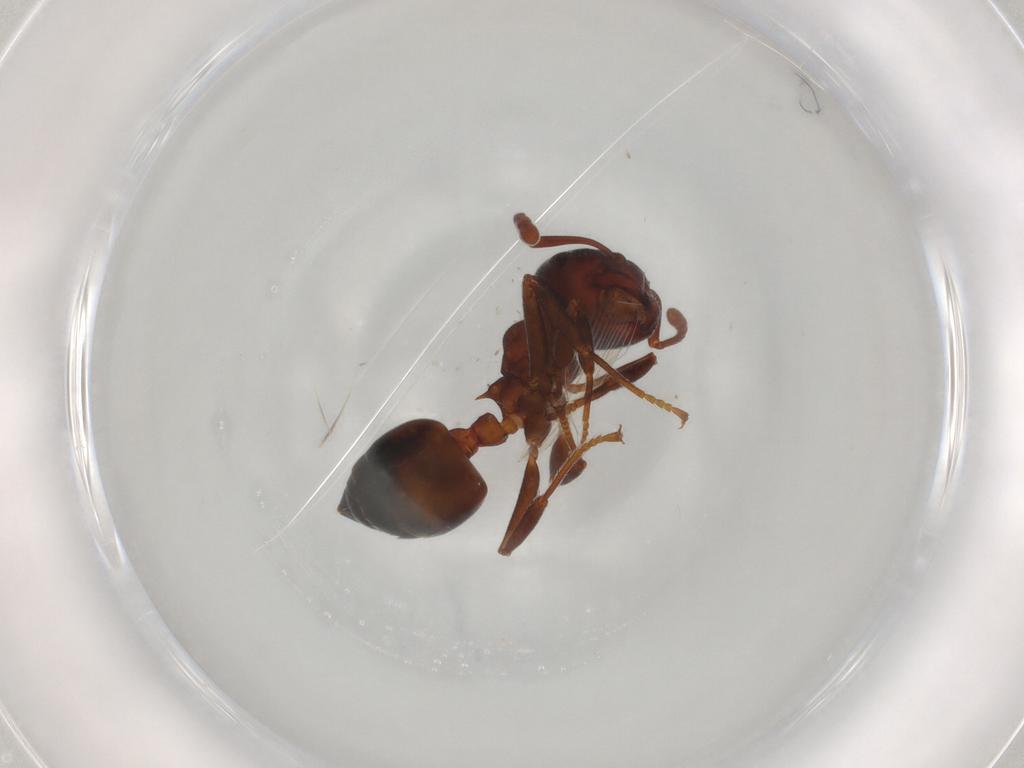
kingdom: Animalia
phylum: Arthropoda
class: Insecta
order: Hymenoptera
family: Formicidae
